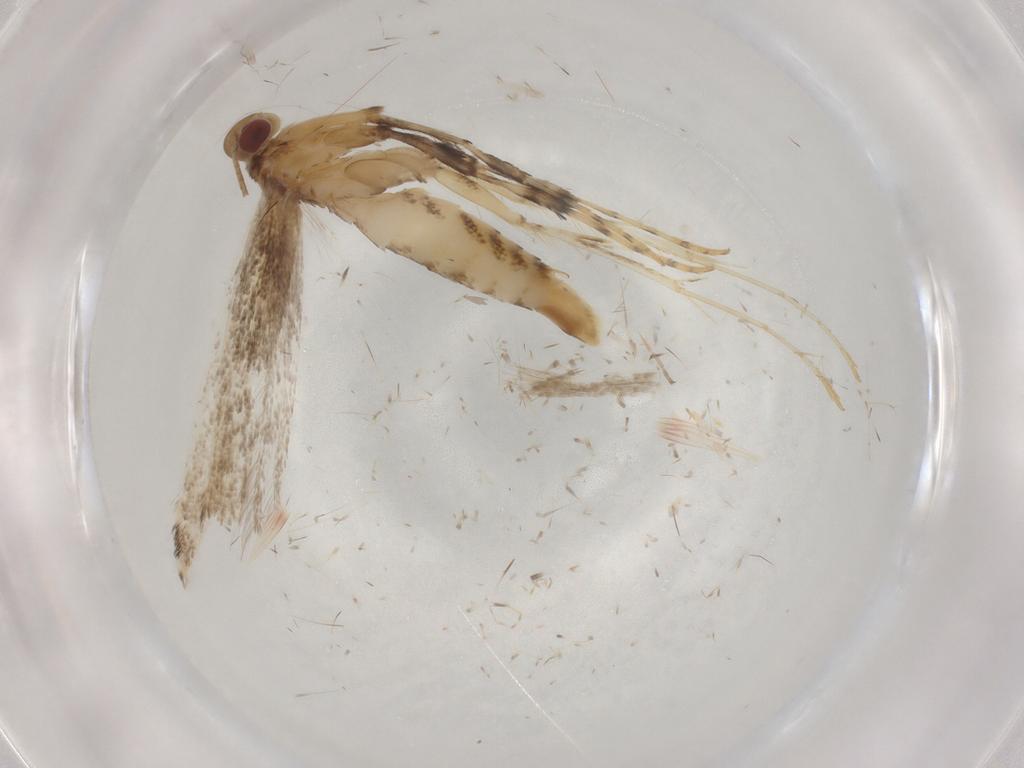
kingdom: Animalia
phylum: Arthropoda
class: Insecta
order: Lepidoptera
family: Gracillariidae
